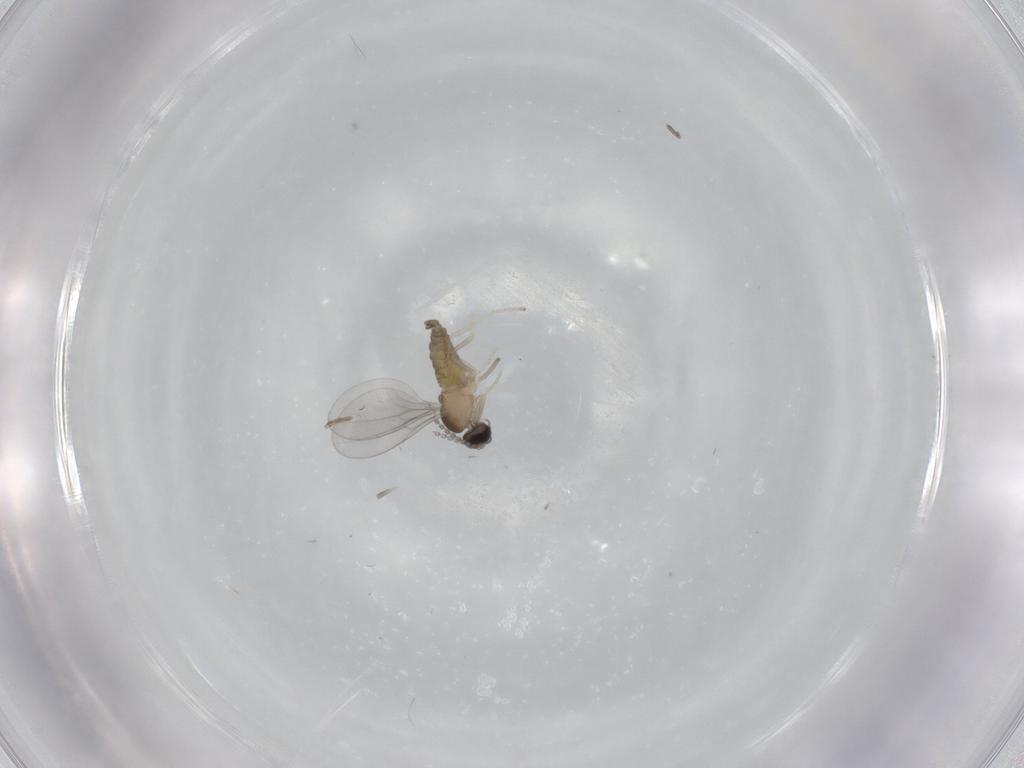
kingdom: Animalia
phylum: Arthropoda
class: Insecta
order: Diptera
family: Cecidomyiidae
